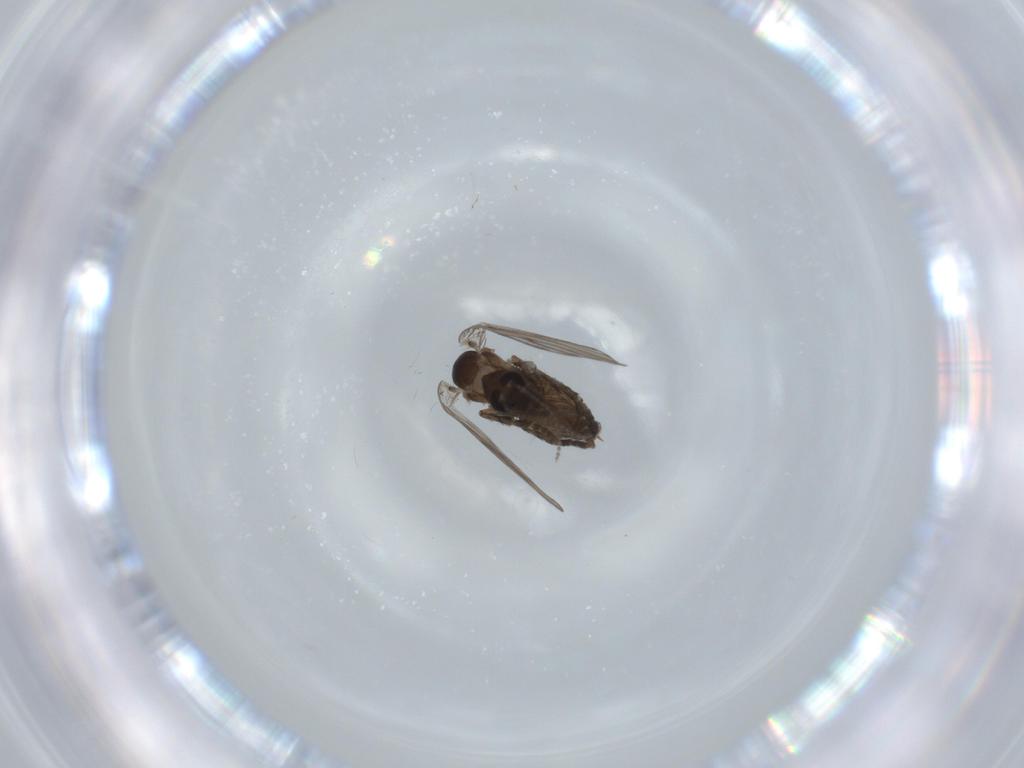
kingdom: Animalia
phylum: Arthropoda
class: Insecta
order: Diptera
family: Psychodidae
